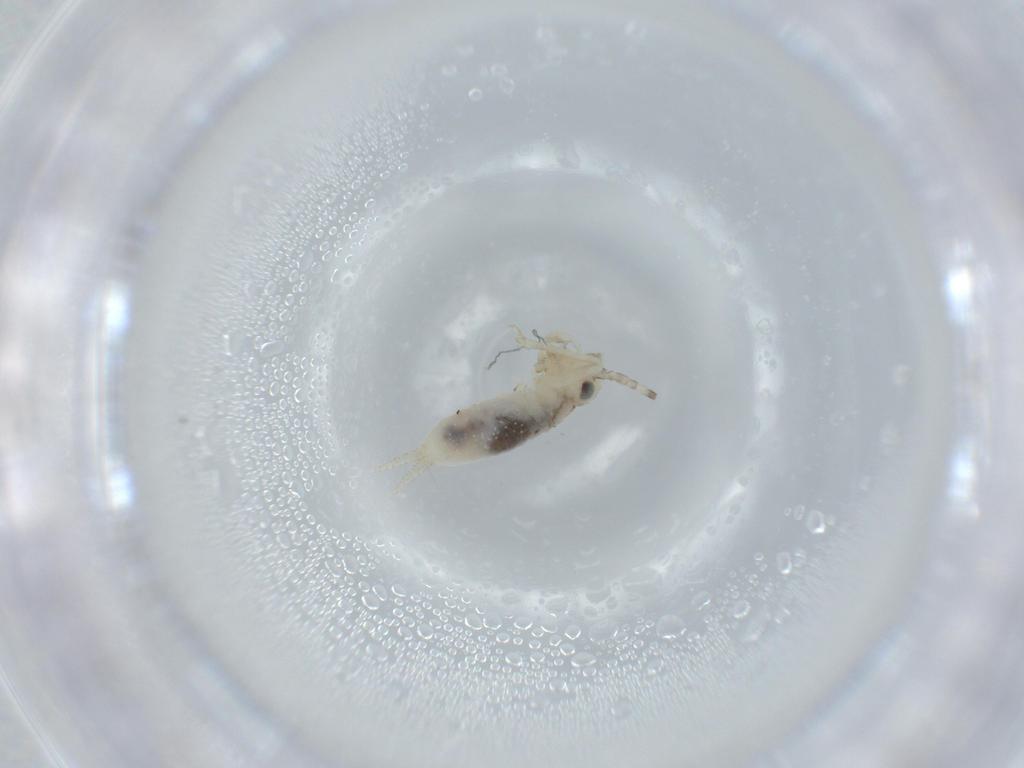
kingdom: Animalia
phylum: Arthropoda
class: Insecta
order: Orthoptera
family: Trigonidiidae
